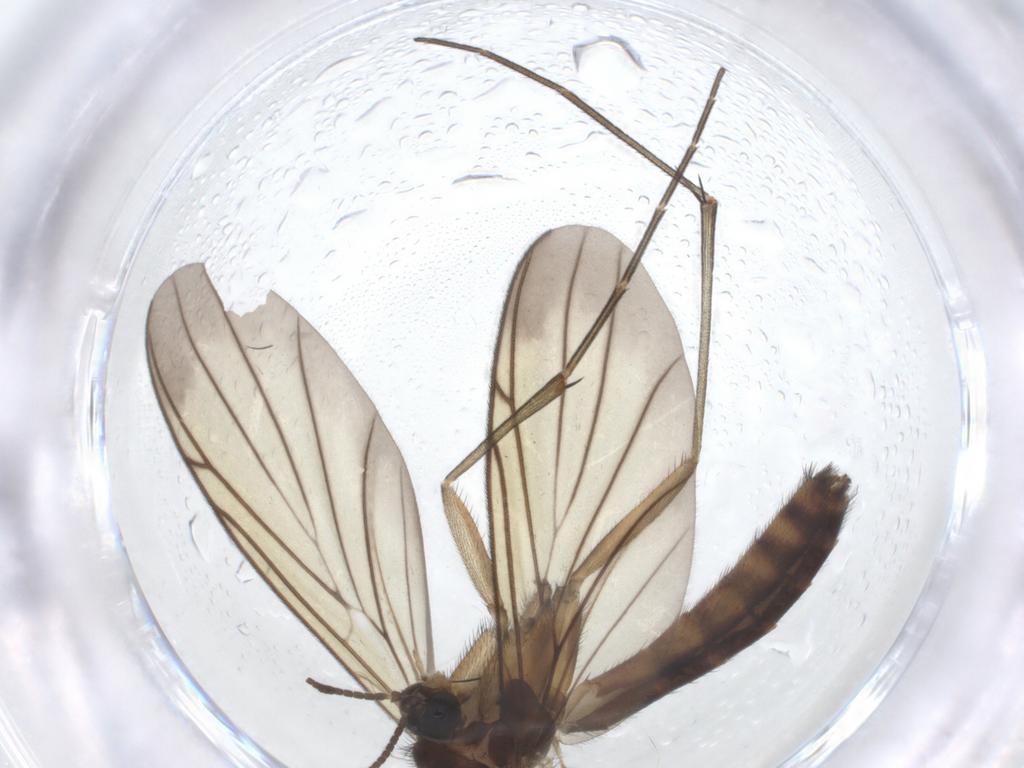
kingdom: Animalia
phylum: Arthropoda
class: Insecta
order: Diptera
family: Keroplatidae
